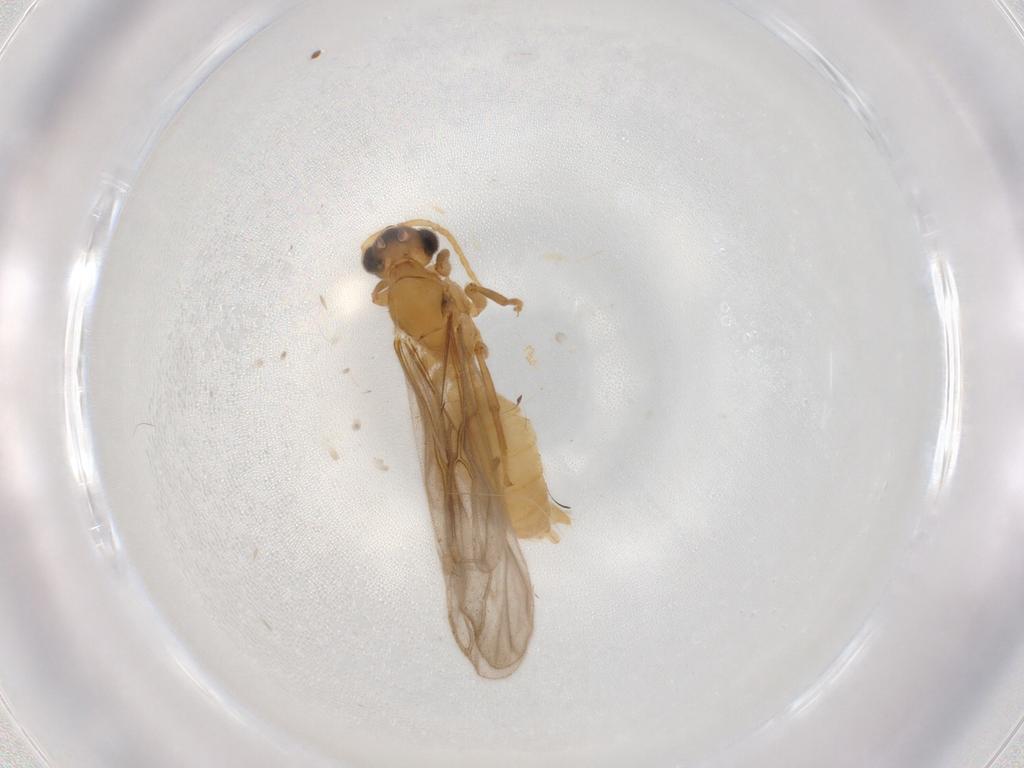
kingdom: Animalia
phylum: Arthropoda
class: Insecta
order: Hymenoptera
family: Formicidae
